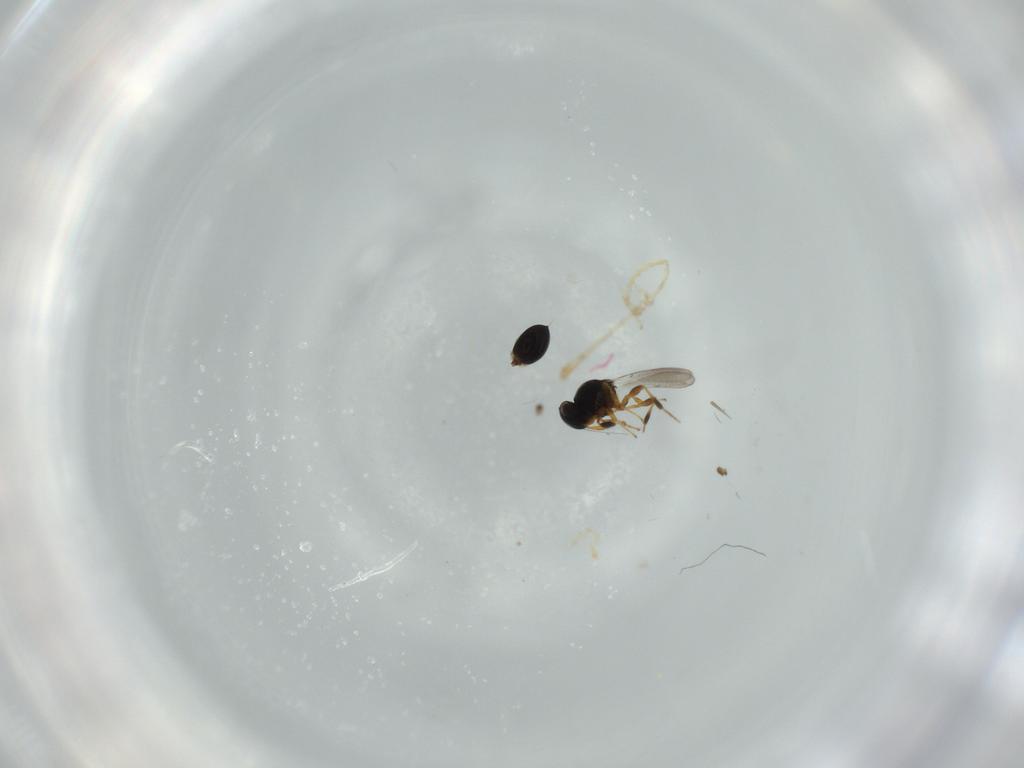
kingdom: Animalia
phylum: Arthropoda
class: Insecta
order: Hymenoptera
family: Platygastridae
